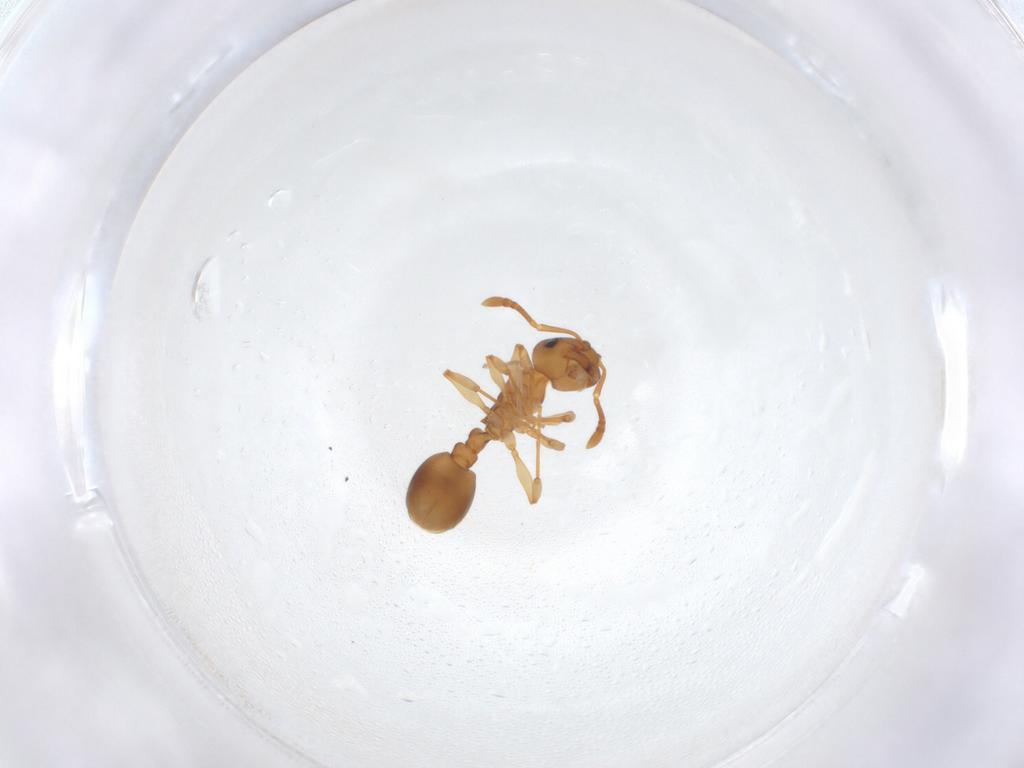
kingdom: Animalia
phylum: Arthropoda
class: Insecta
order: Hymenoptera
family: Formicidae
